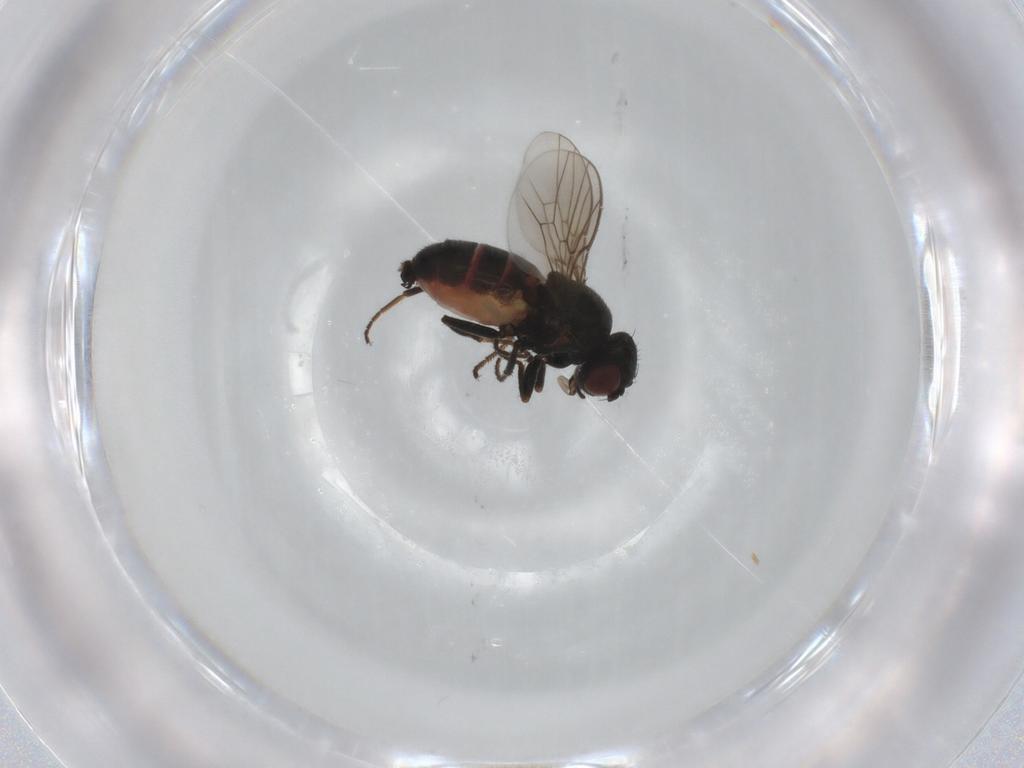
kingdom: Animalia
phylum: Arthropoda
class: Insecta
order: Diptera
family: Chloropidae
